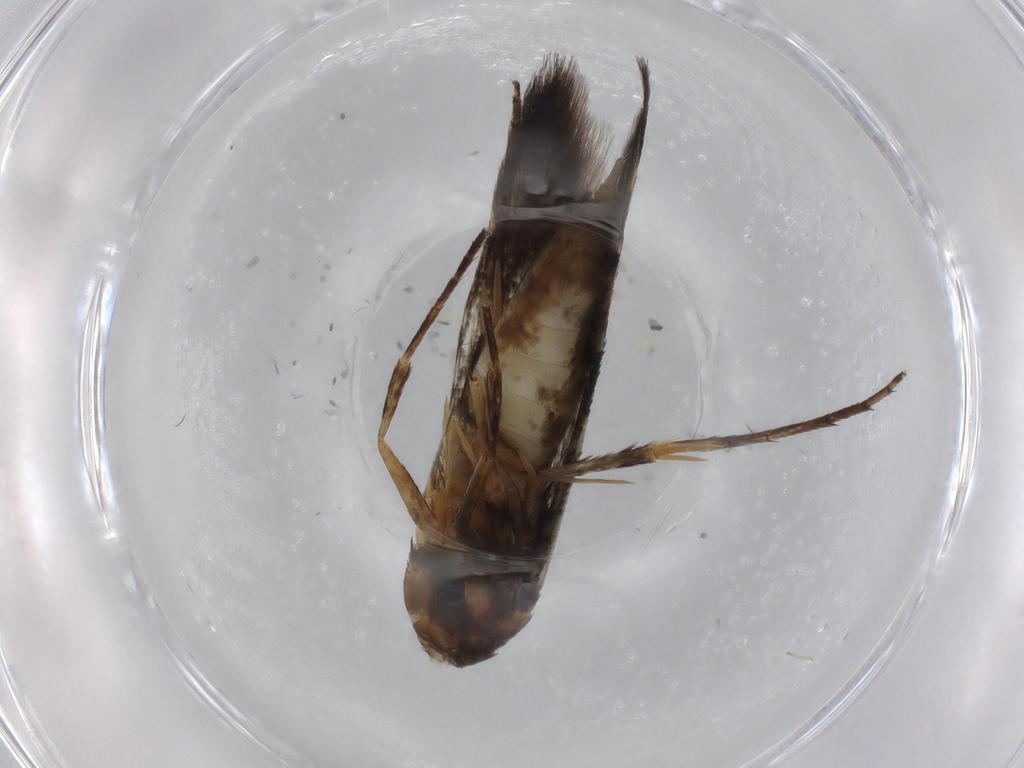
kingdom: Animalia
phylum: Arthropoda
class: Insecta
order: Lepidoptera
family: Heliodinidae
